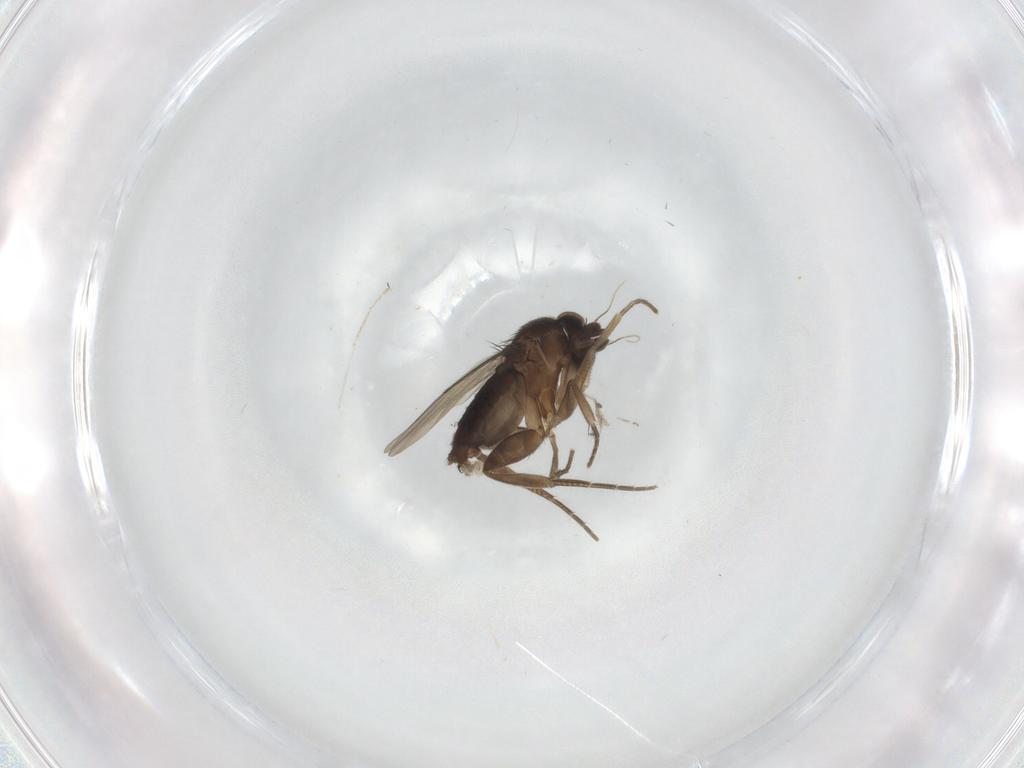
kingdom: Animalia
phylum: Arthropoda
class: Insecta
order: Diptera
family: Phoridae
